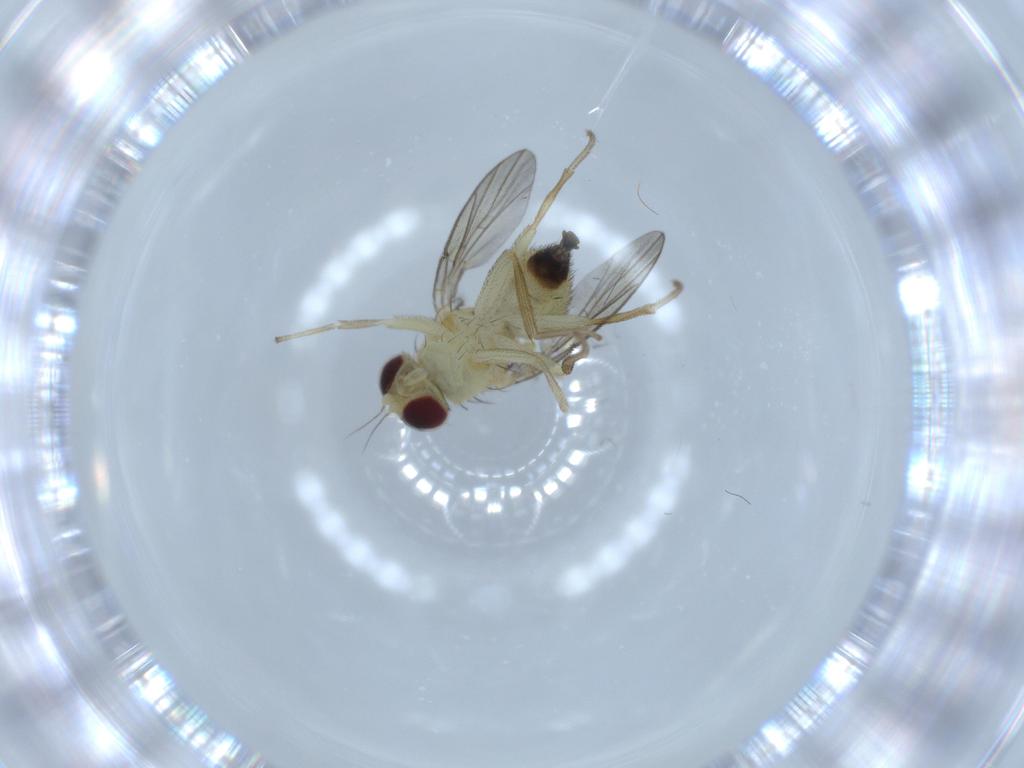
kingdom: Animalia
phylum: Arthropoda
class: Insecta
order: Diptera
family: Agromyzidae
